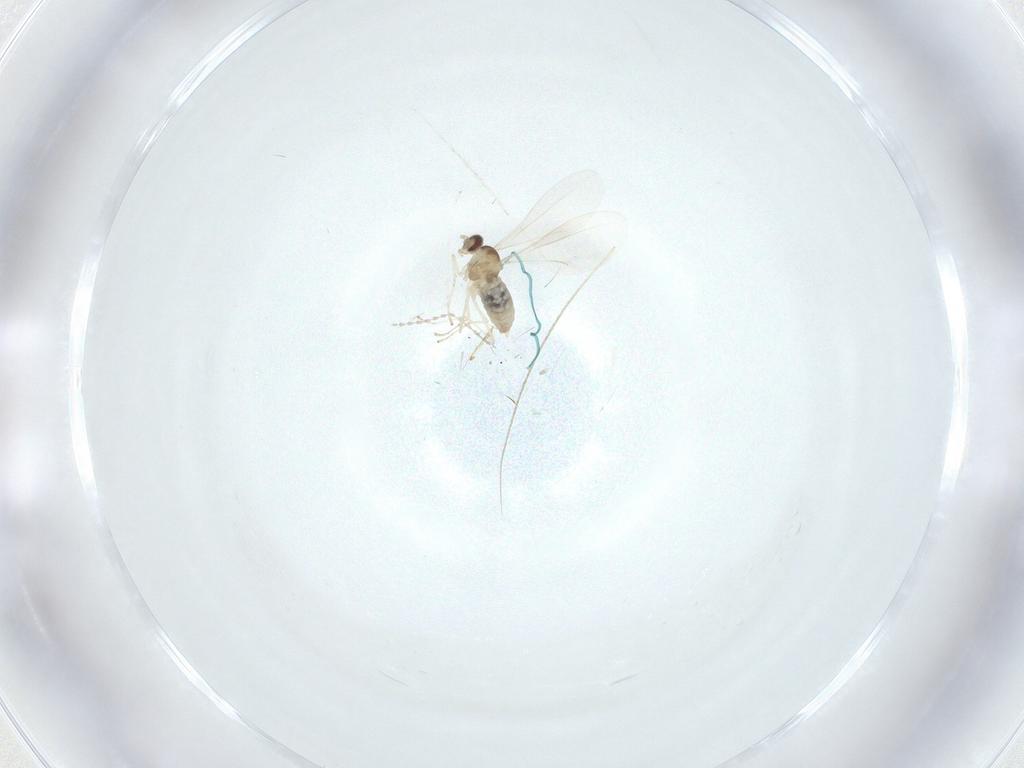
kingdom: Animalia
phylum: Arthropoda
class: Insecta
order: Diptera
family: Cecidomyiidae
